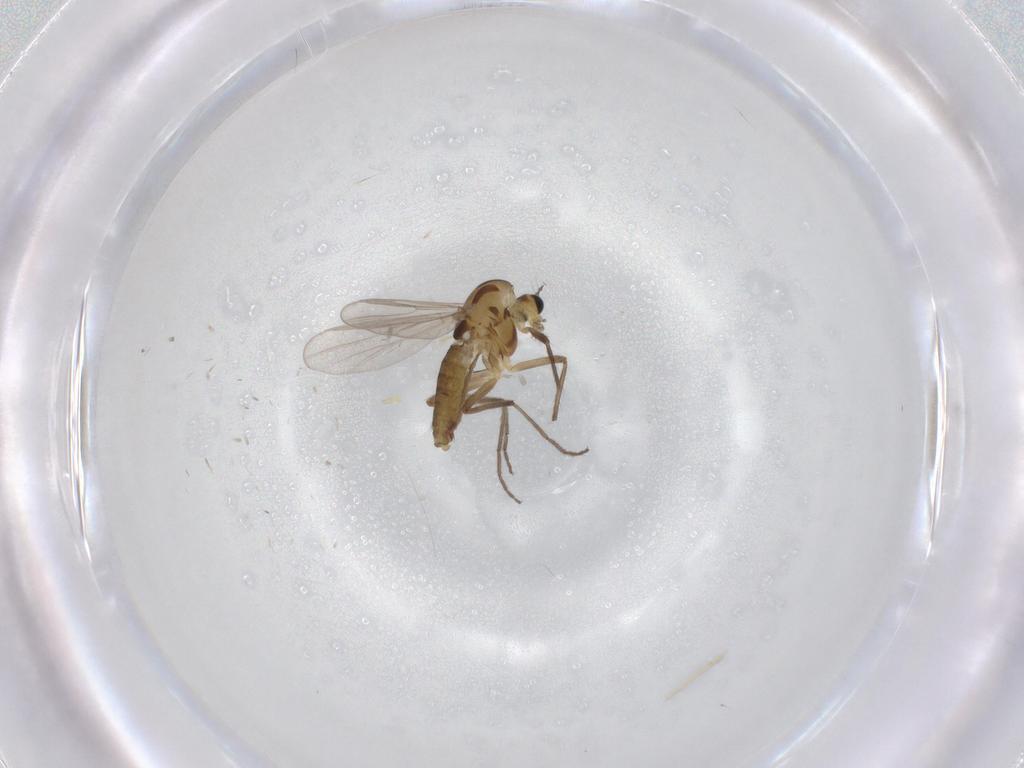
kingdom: Animalia
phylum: Arthropoda
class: Insecta
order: Diptera
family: Chironomidae
